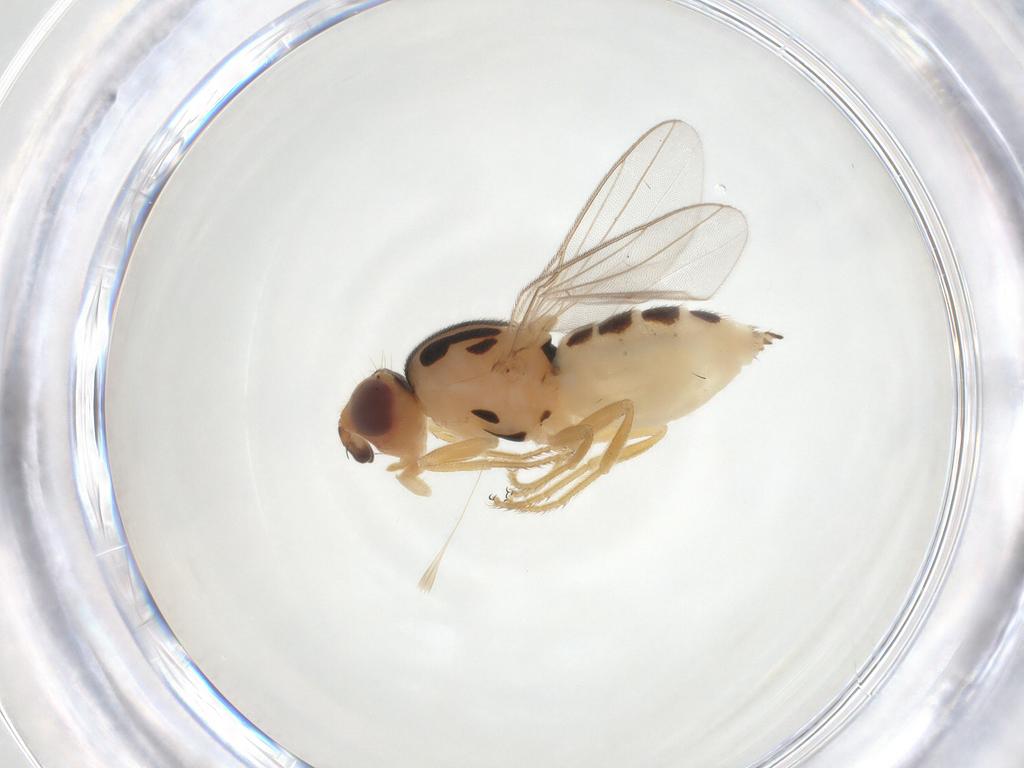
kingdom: Animalia
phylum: Arthropoda
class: Insecta
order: Diptera
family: Chloropidae
